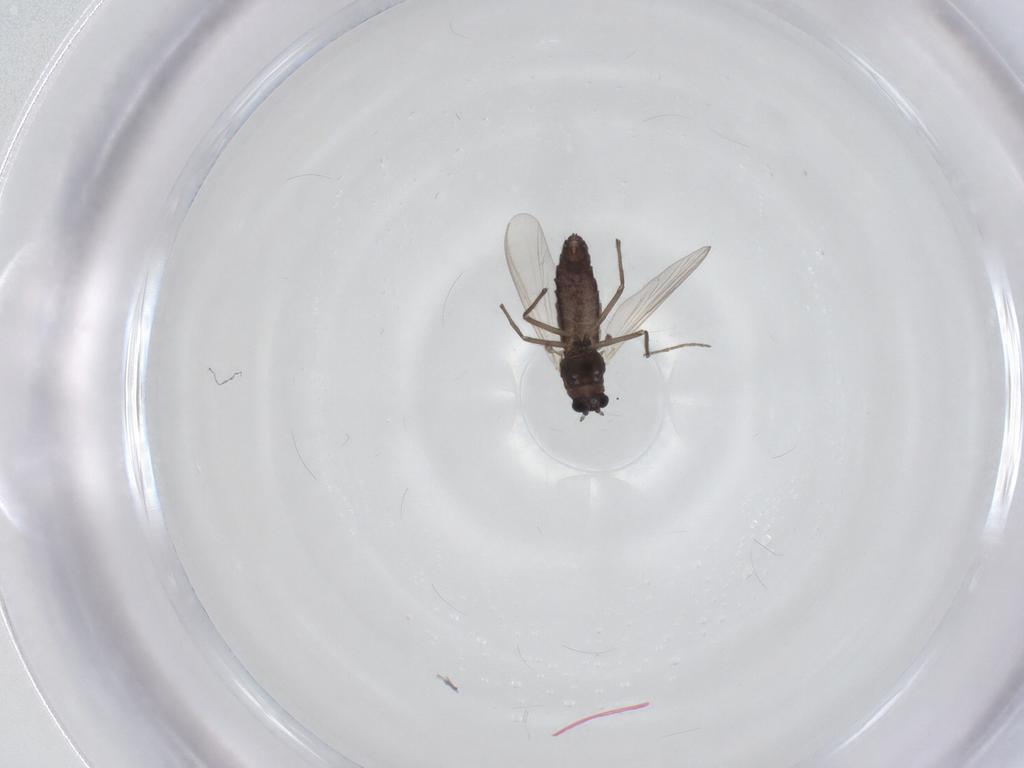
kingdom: Animalia
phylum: Arthropoda
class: Insecta
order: Diptera
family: Chironomidae
